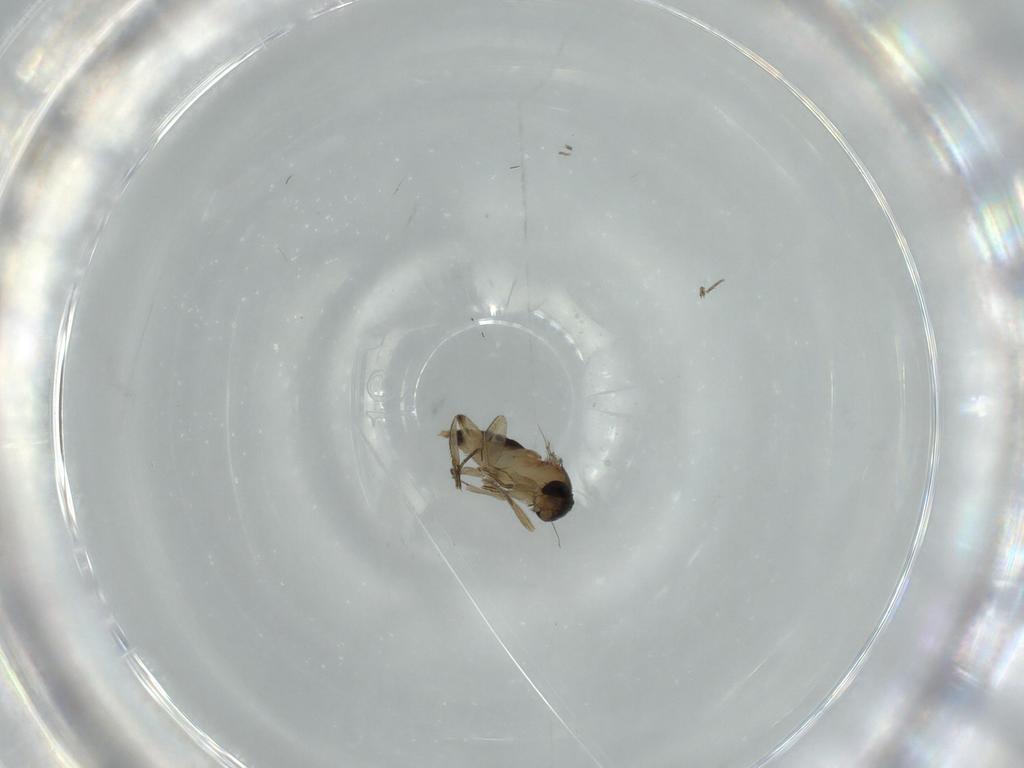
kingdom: Animalia
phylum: Arthropoda
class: Insecta
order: Diptera
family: Phoridae
